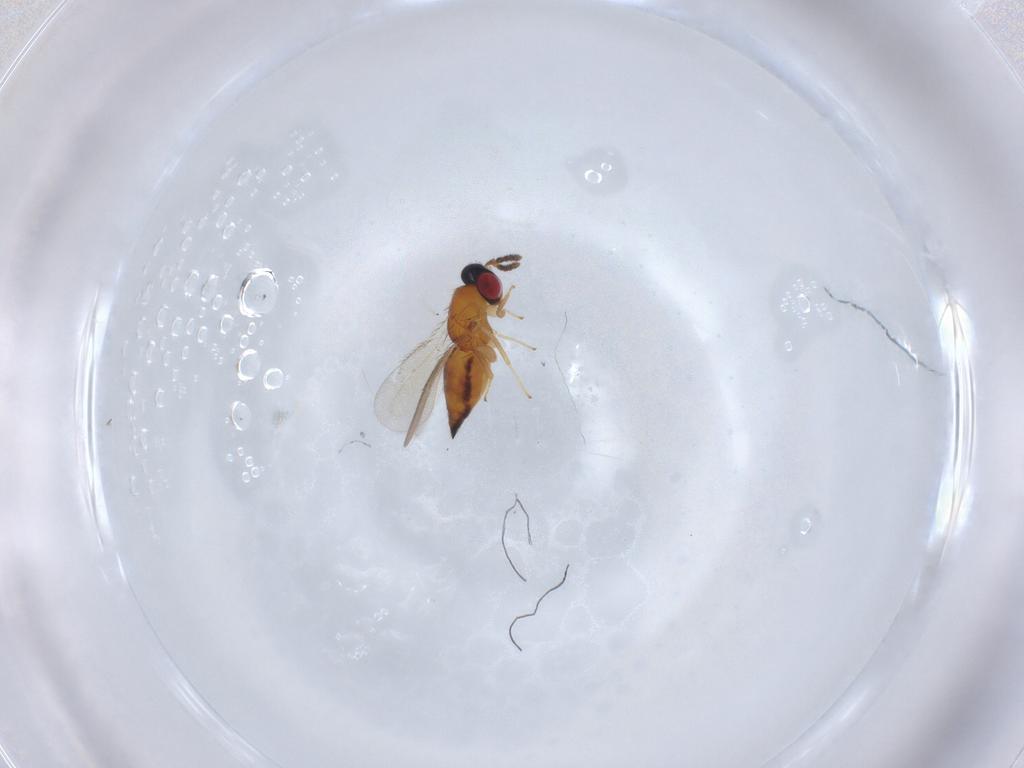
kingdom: Animalia
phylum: Arthropoda
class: Insecta
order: Hymenoptera
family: Eulophidae
